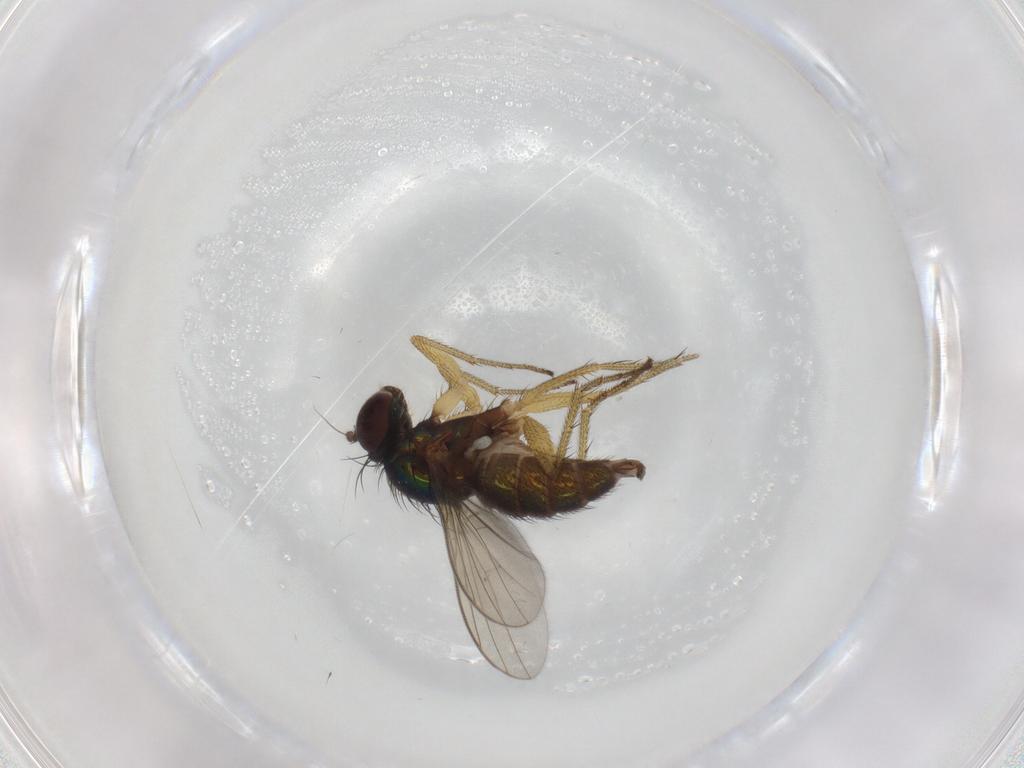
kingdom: Animalia
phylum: Arthropoda
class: Insecta
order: Diptera
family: Dolichopodidae
